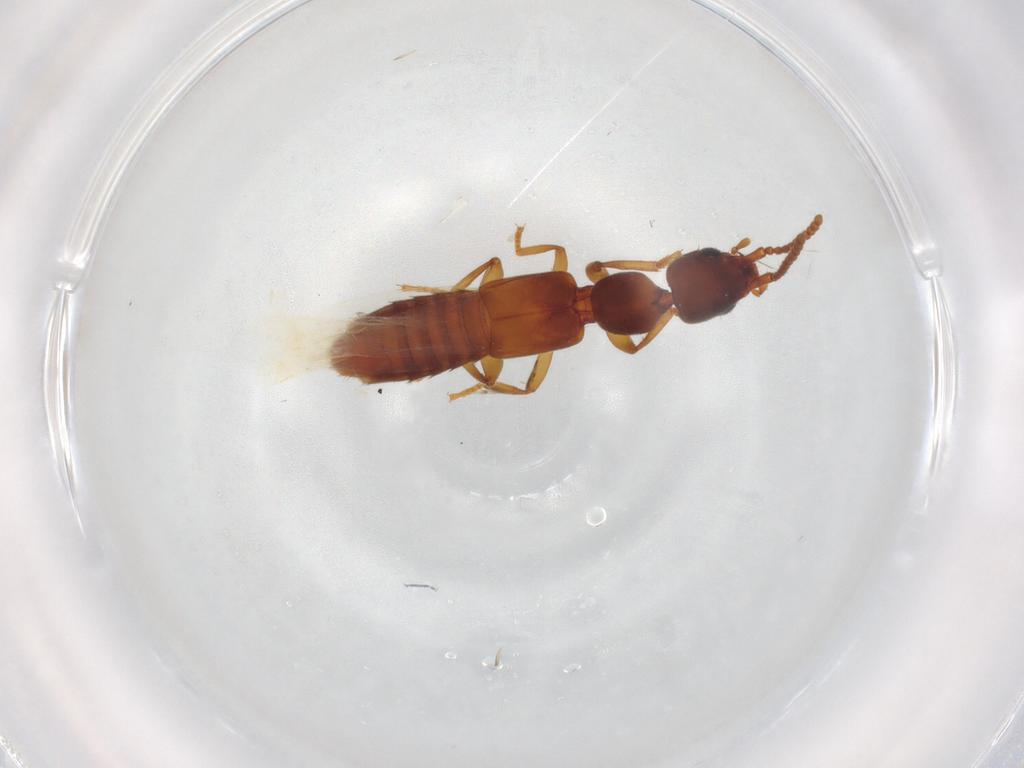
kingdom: Animalia
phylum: Arthropoda
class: Insecta
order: Coleoptera
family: Staphylinidae
